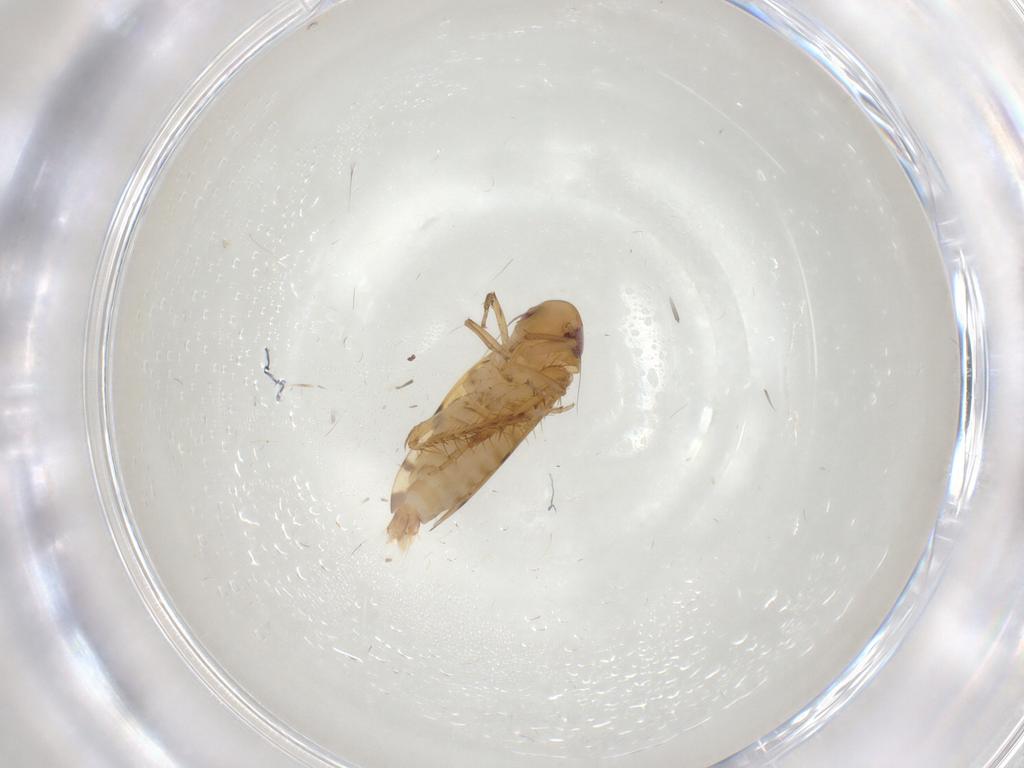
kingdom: Animalia
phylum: Arthropoda
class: Insecta
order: Hemiptera
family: Cicadellidae
